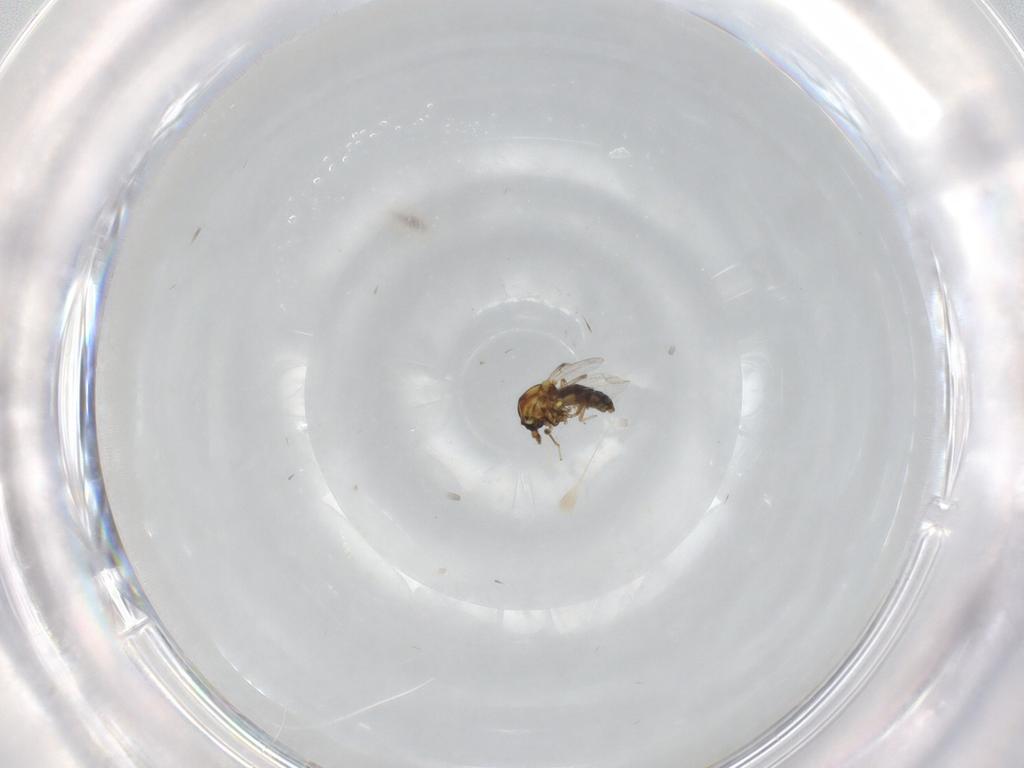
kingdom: Animalia
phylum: Arthropoda
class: Insecta
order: Diptera
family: Ceratopogonidae
